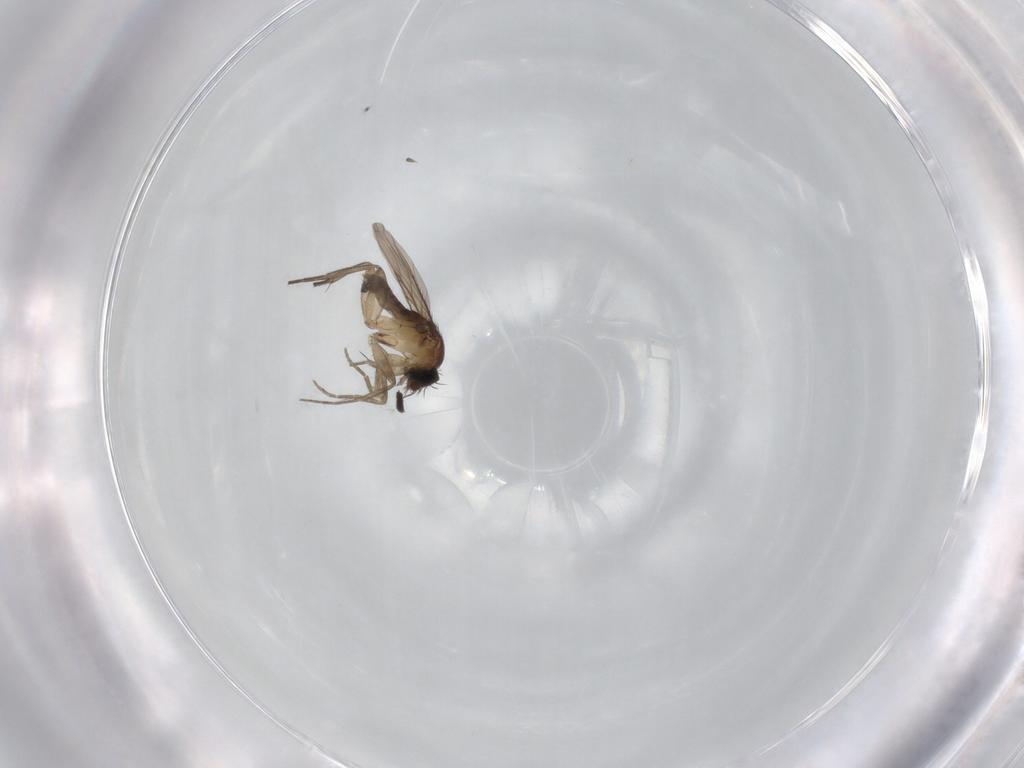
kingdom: Animalia
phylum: Arthropoda
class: Insecta
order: Diptera
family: Phoridae
